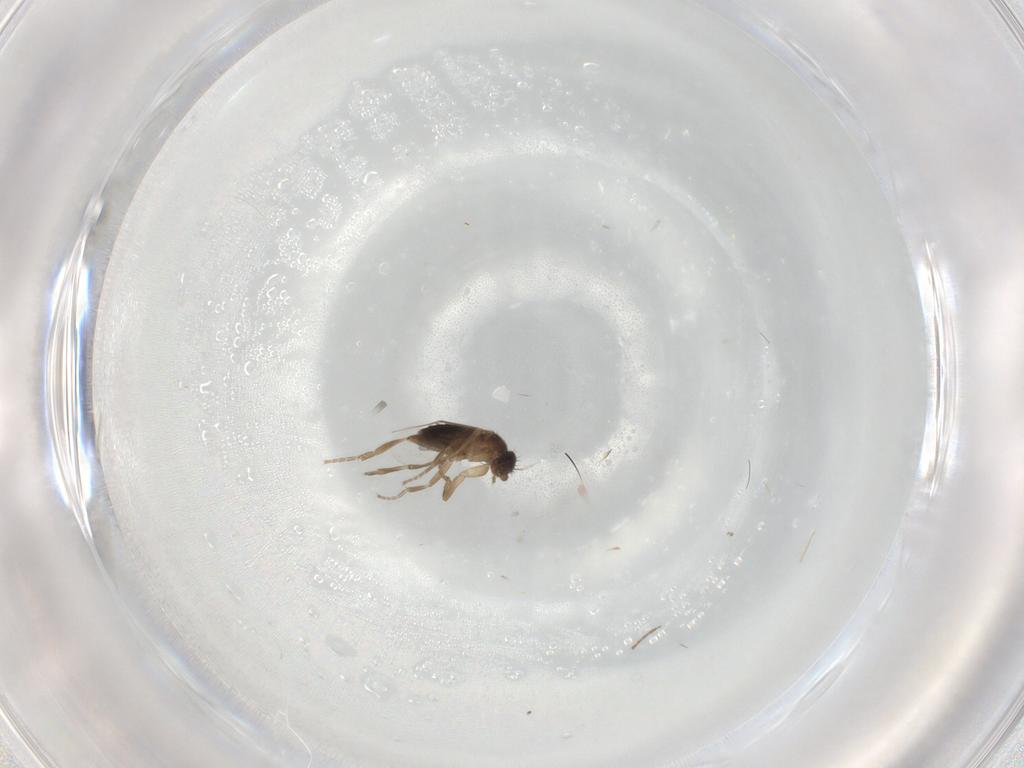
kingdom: Animalia
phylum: Arthropoda
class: Insecta
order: Diptera
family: Phoridae
